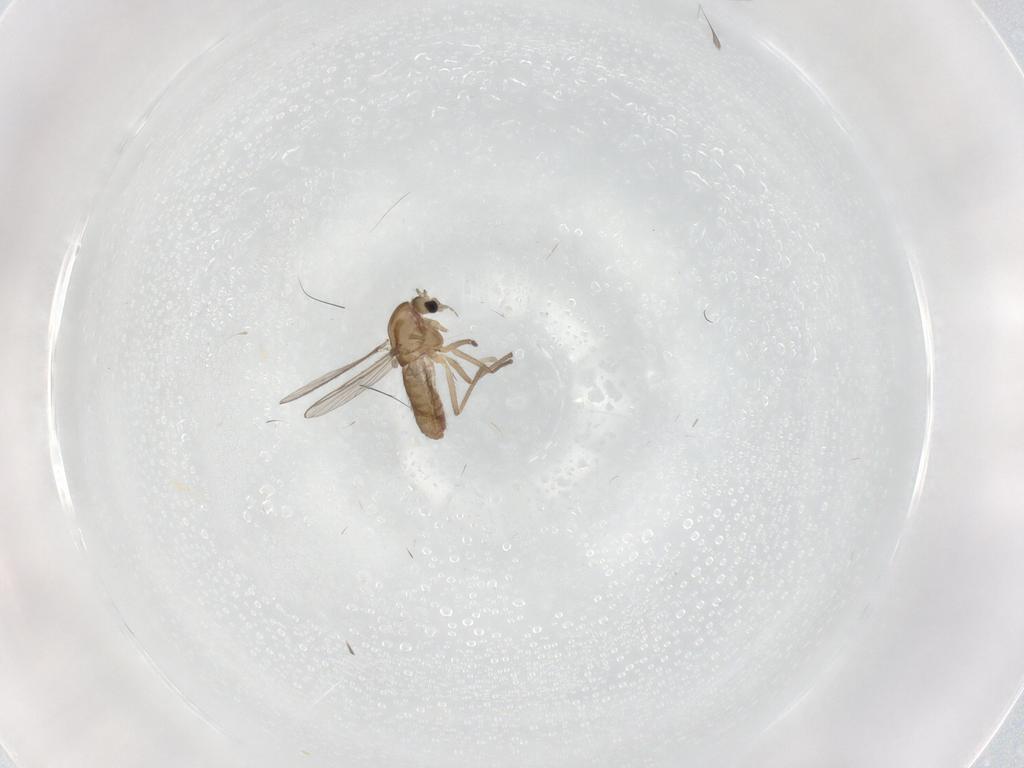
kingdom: Animalia
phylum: Arthropoda
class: Insecta
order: Diptera
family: Chironomidae
